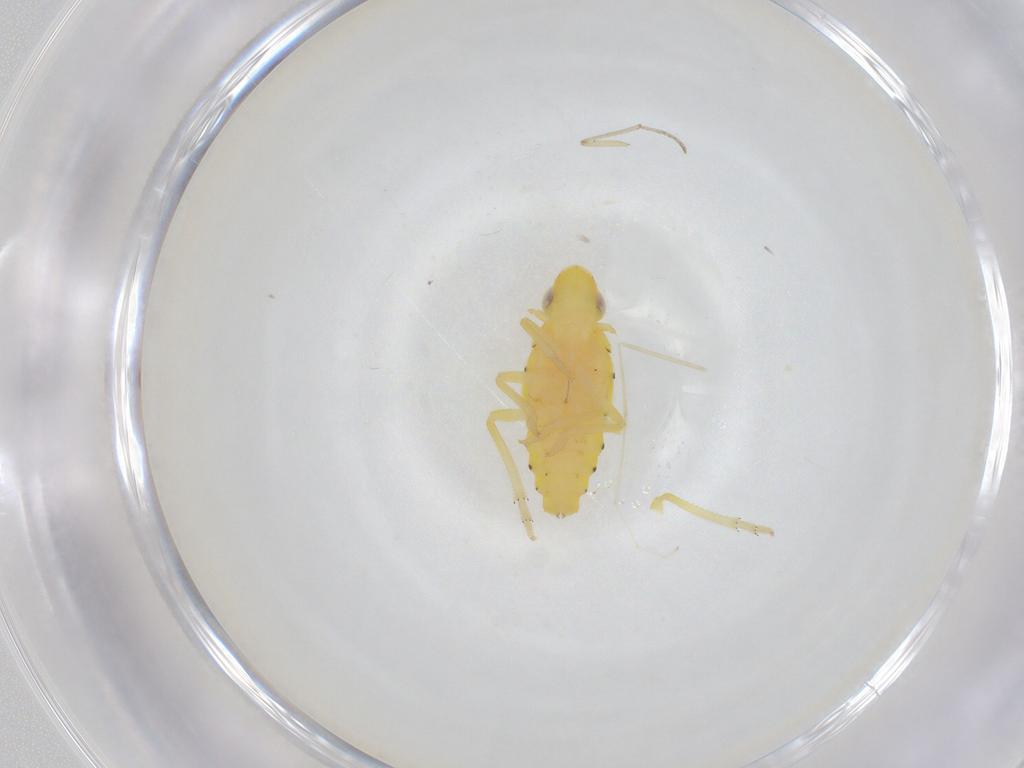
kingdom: Animalia
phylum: Arthropoda
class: Insecta
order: Hemiptera
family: Tropiduchidae
